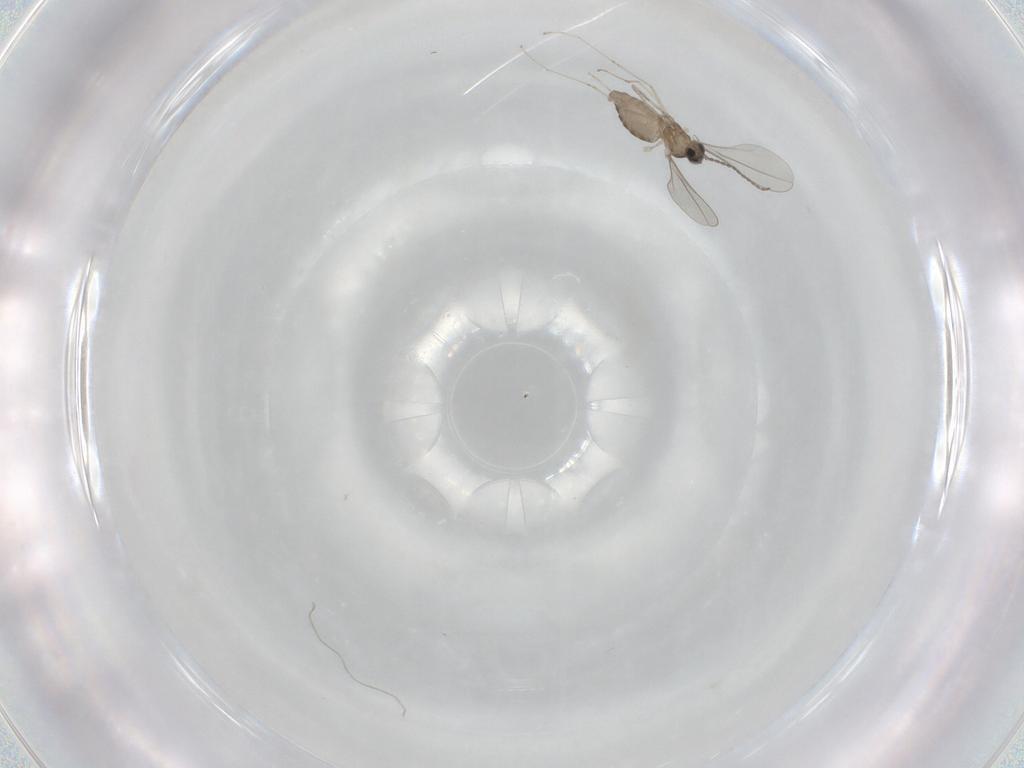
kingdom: Animalia
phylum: Arthropoda
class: Insecta
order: Diptera
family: Cecidomyiidae
